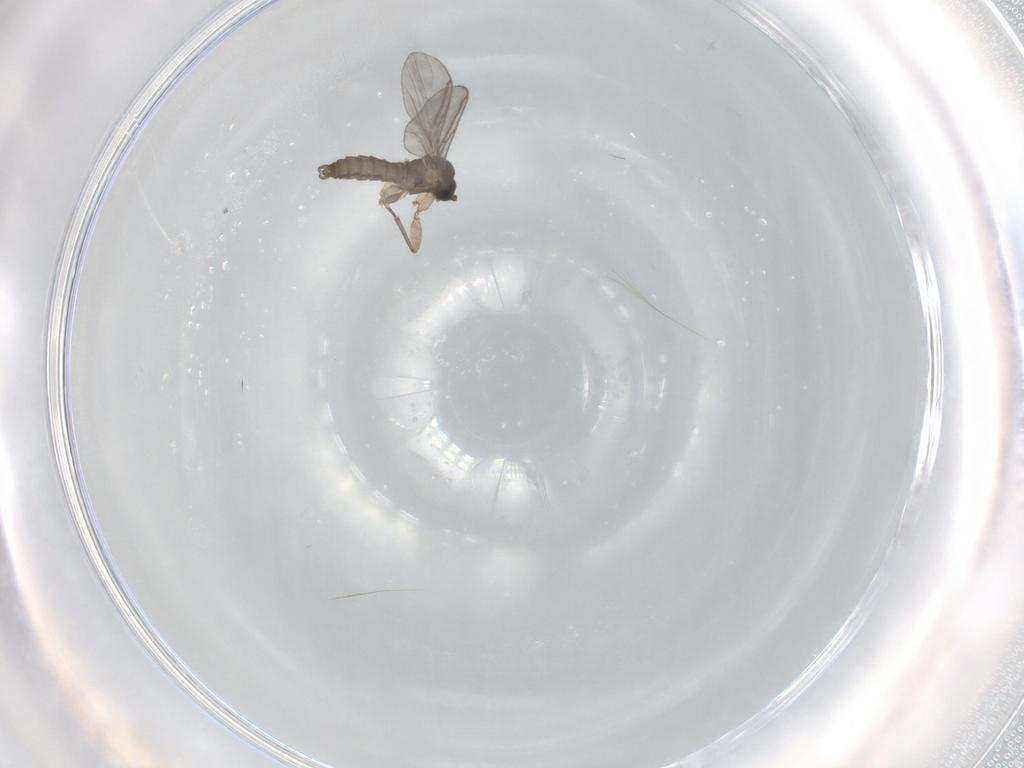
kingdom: Animalia
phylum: Arthropoda
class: Insecta
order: Diptera
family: Sciaridae
